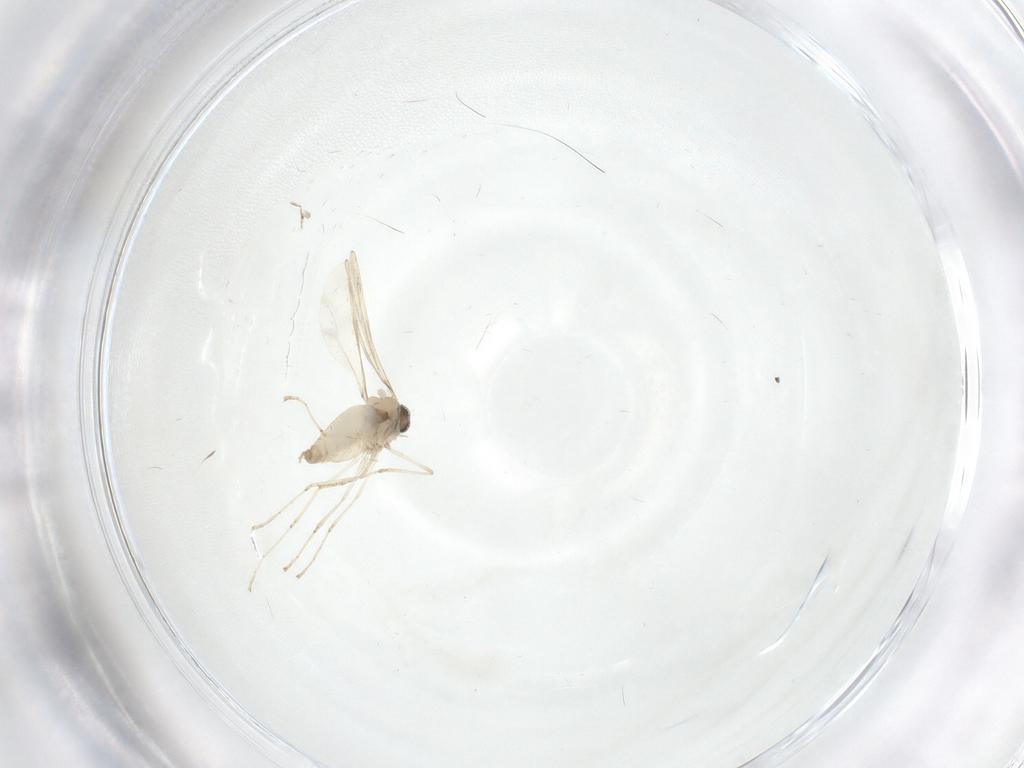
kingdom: Animalia
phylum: Arthropoda
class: Insecta
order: Diptera
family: Cecidomyiidae
